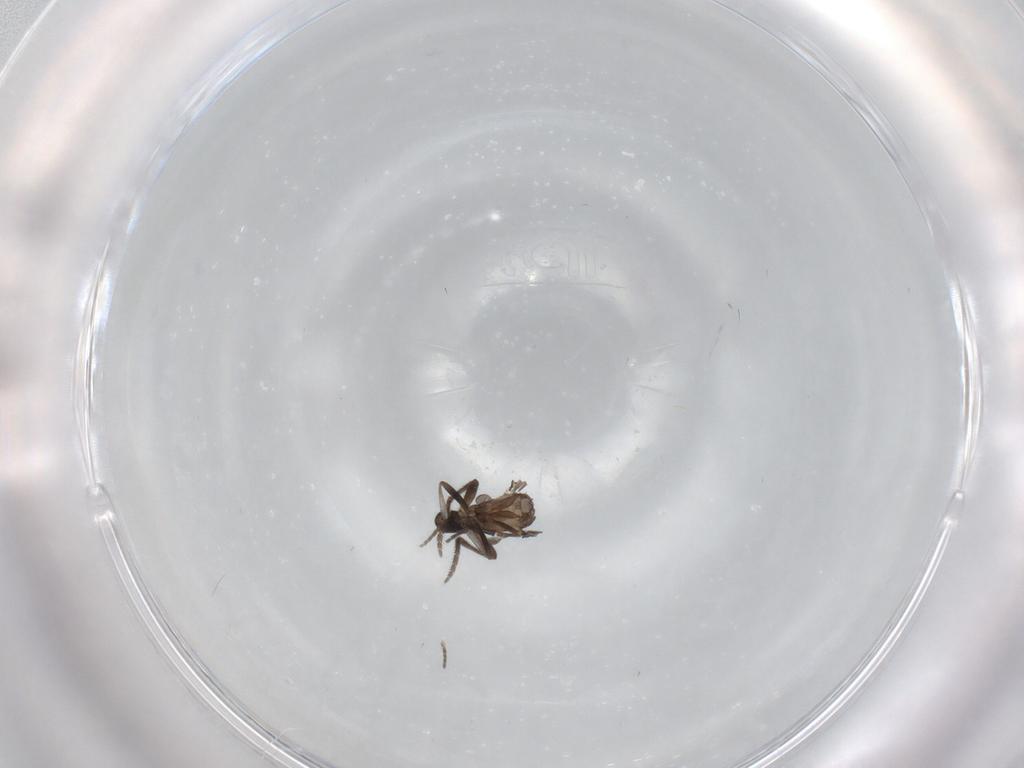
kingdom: Animalia
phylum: Arthropoda
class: Insecta
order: Diptera
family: Phoridae
